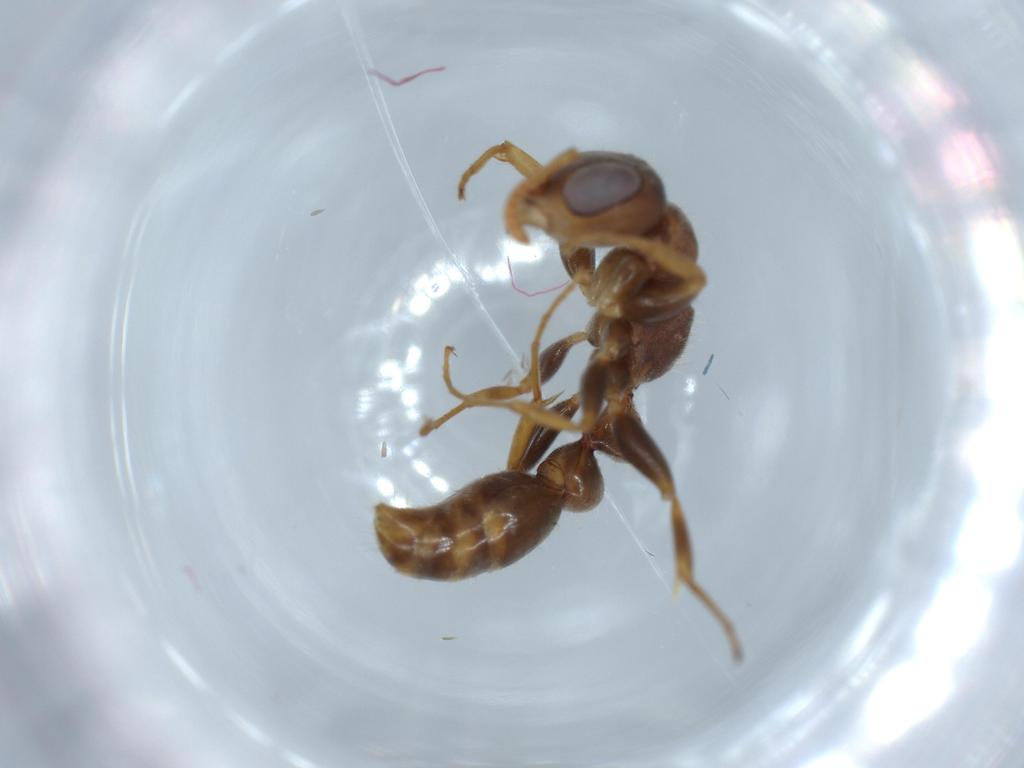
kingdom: Animalia
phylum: Arthropoda
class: Insecta
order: Hymenoptera
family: Formicidae
